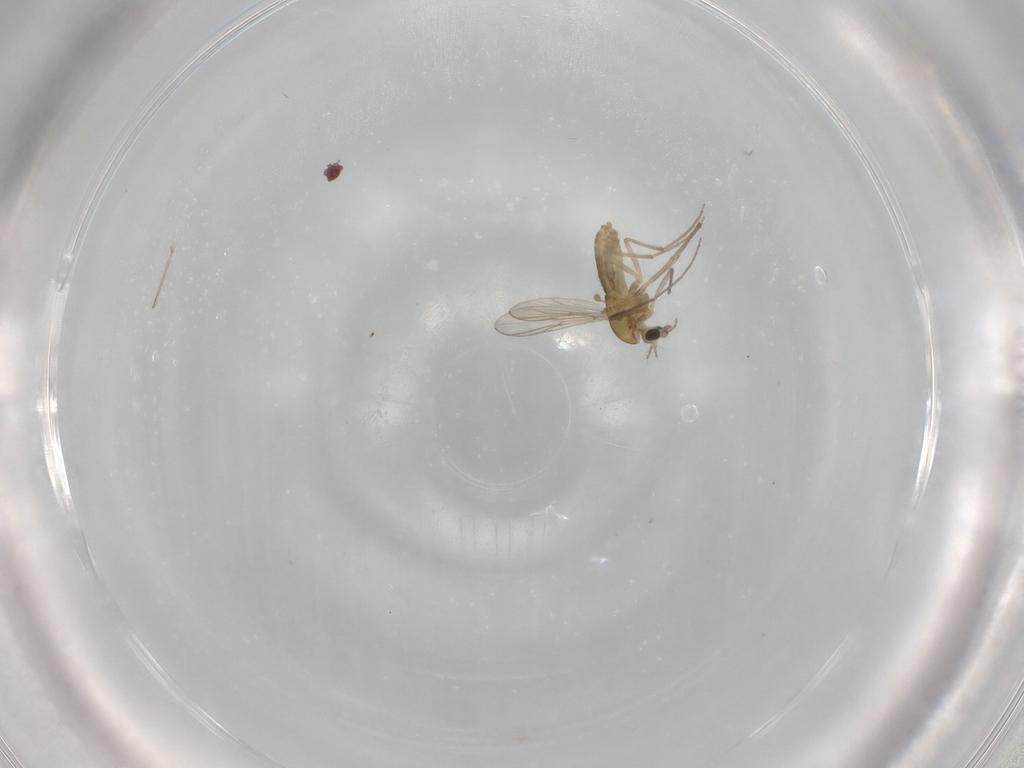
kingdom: Animalia
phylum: Arthropoda
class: Insecta
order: Diptera
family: Chironomidae
